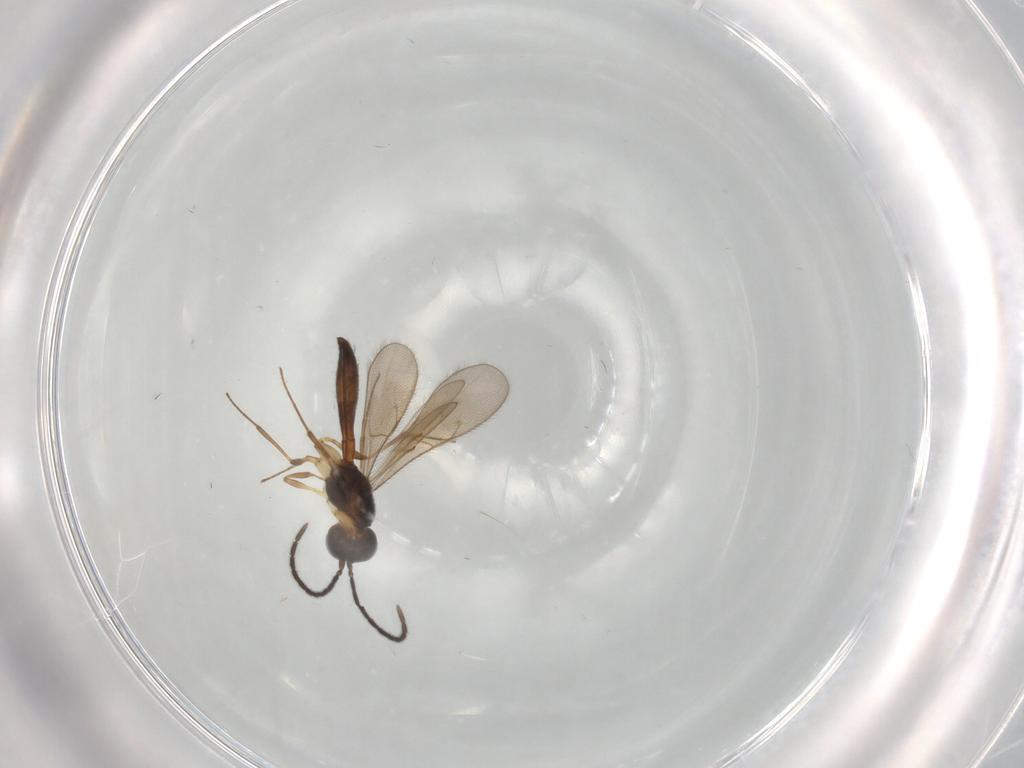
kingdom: Animalia
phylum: Arthropoda
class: Insecta
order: Hymenoptera
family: Scelionidae
